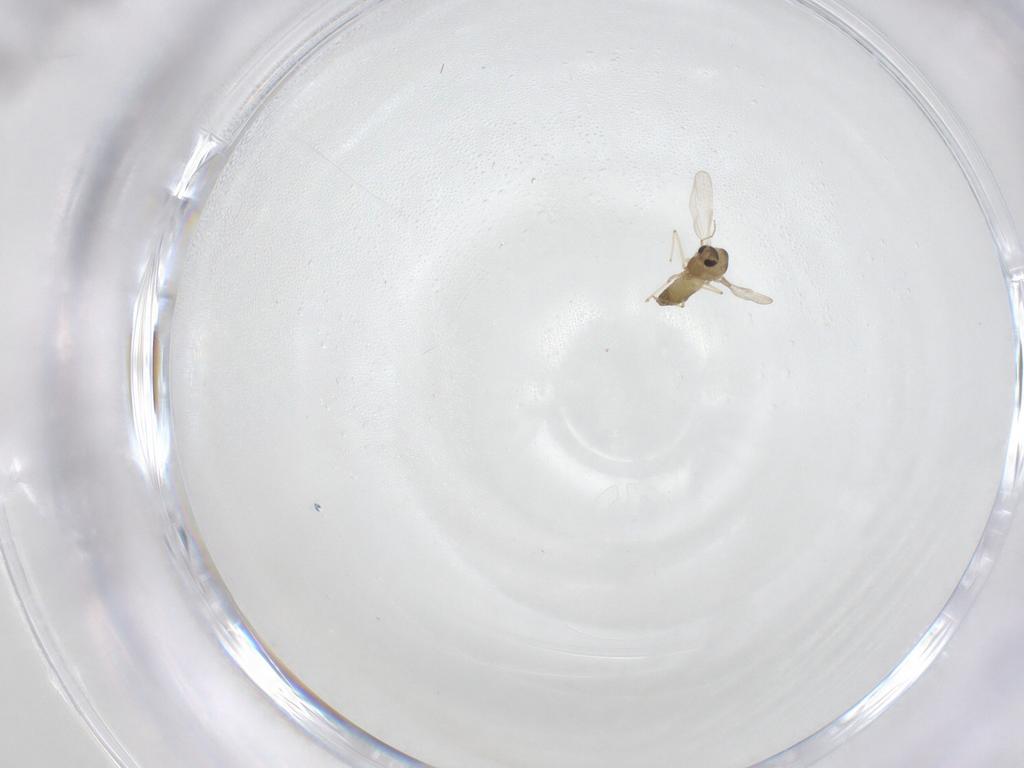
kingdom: Animalia
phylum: Arthropoda
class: Insecta
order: Diptera
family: Chironomidae
